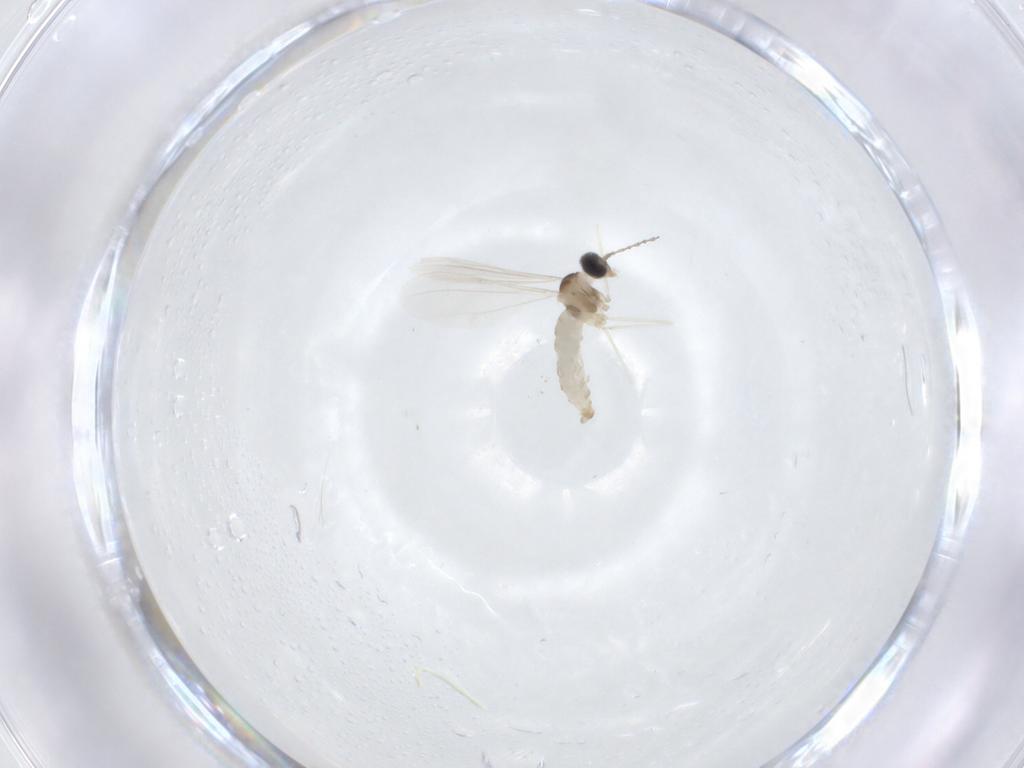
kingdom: Animalia
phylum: Arthropoda
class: Insecta
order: Diptera
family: Cecidomyiidae
